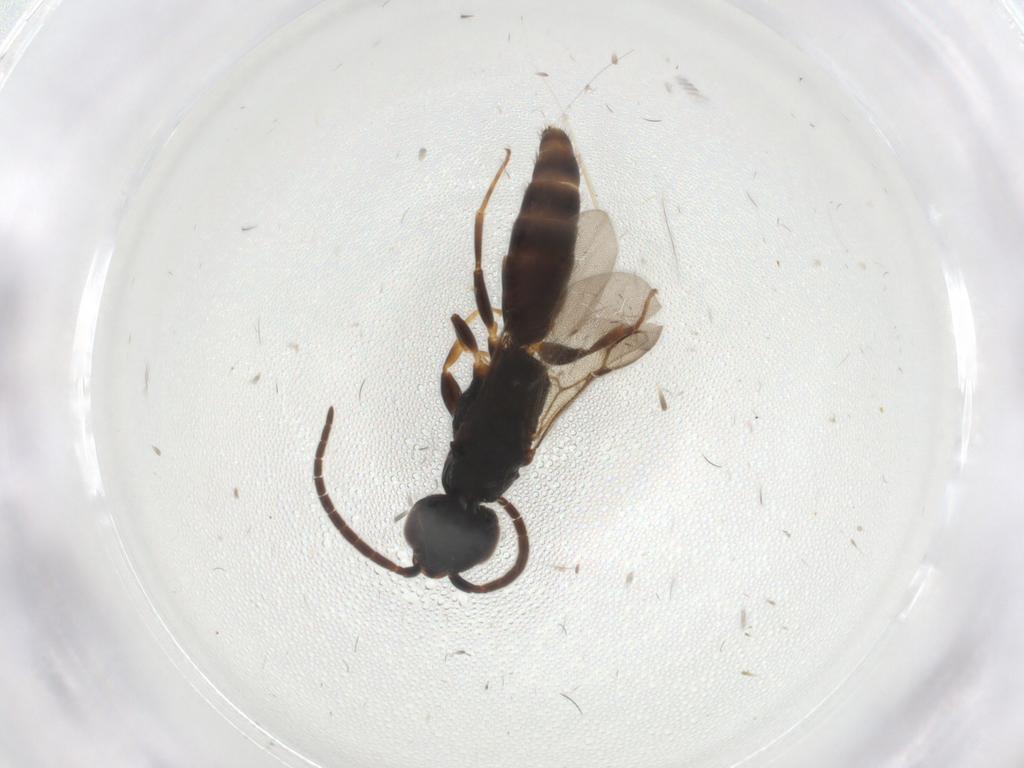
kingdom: Animalia
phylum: Arthropoda
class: Insecta
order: Hymenoptera
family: Bethylidae
